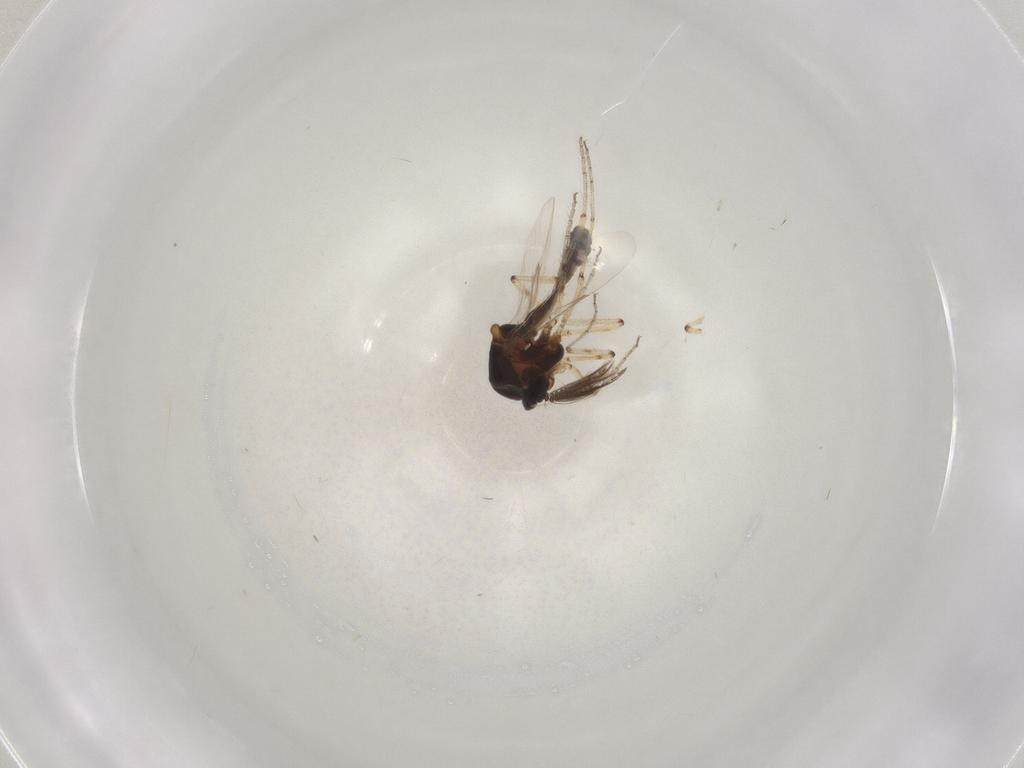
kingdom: Animalia
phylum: Arthropoda
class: Insecta
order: Diptera
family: Ceratopogonidae
